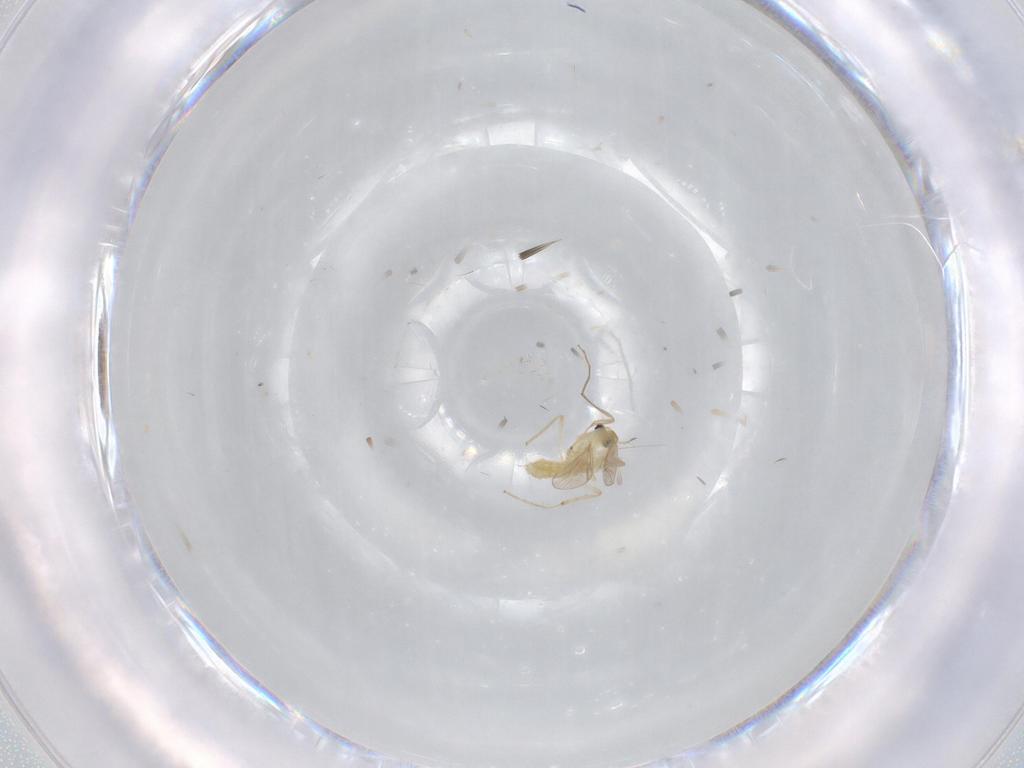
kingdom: Animalia
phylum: Arthropoda
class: Insecta
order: Diptera
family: Chironomidae
